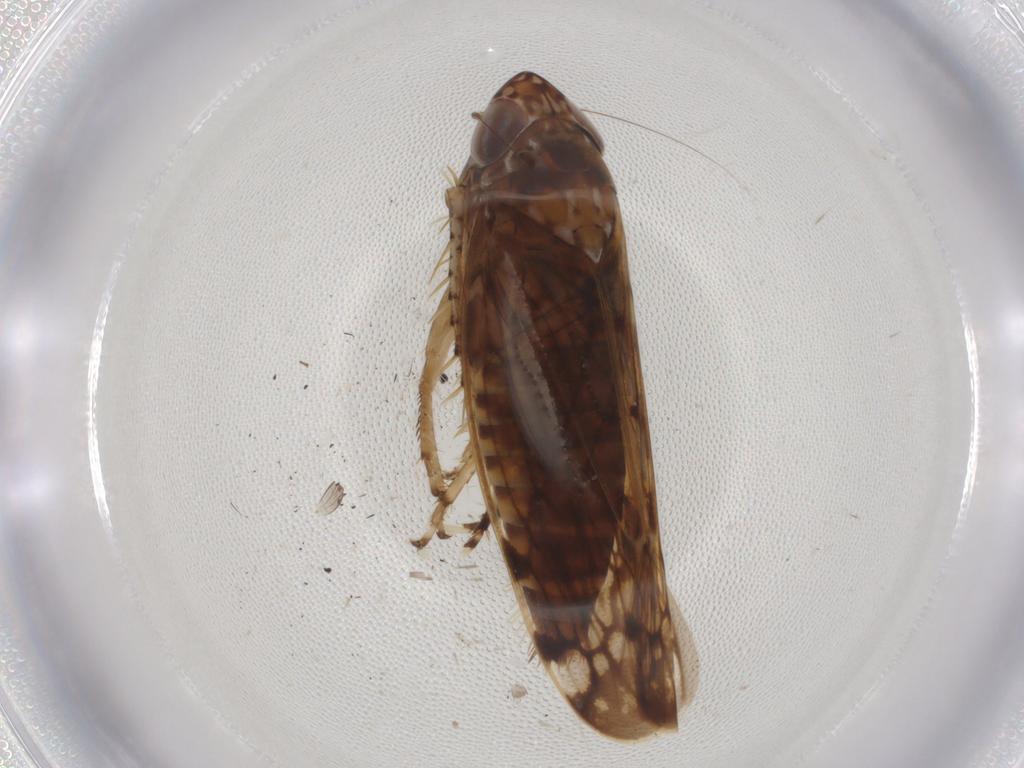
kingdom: Animalia
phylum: Arthropoda
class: Insecta
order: Hemiptera
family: Cicadellidae
